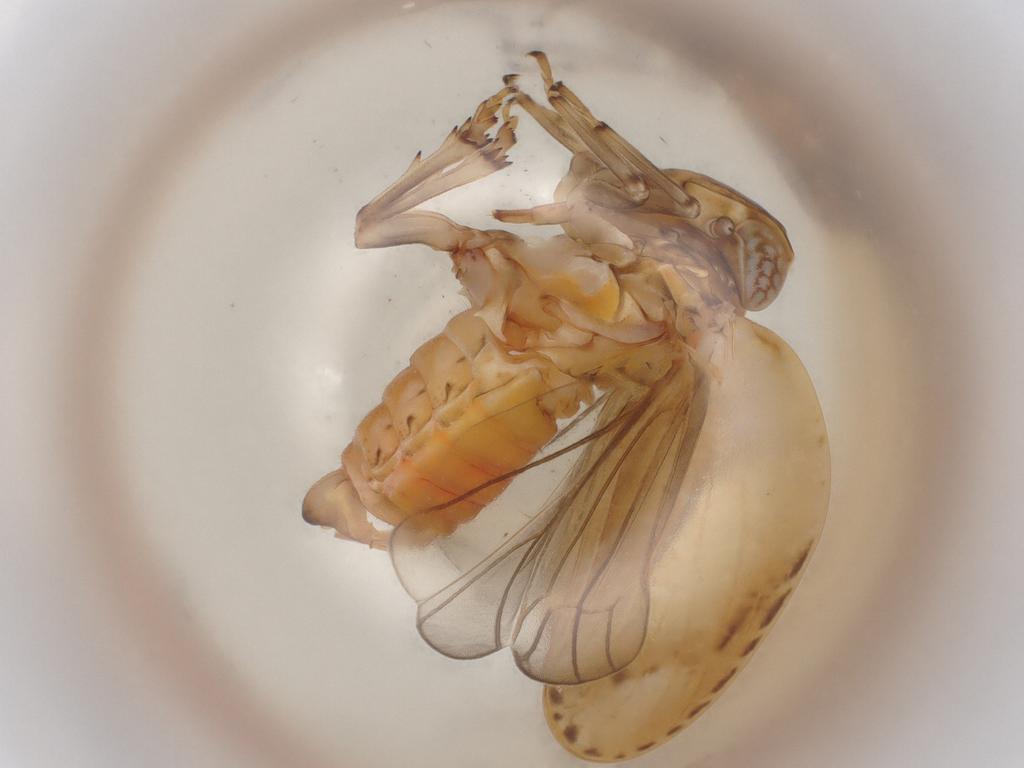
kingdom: Animalia
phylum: Arthropoda
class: Insecta
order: Hemiptera
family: Issidae
